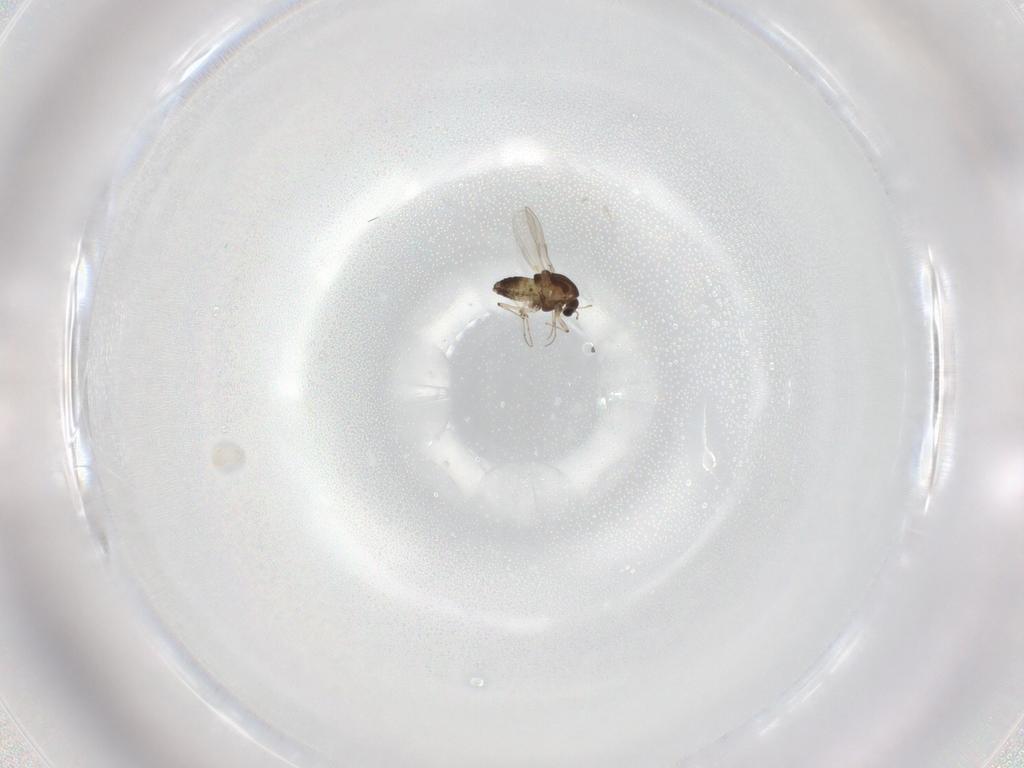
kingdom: Animalia
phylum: Arthropoda
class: Insecta
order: Diptera
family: Chironomidae
